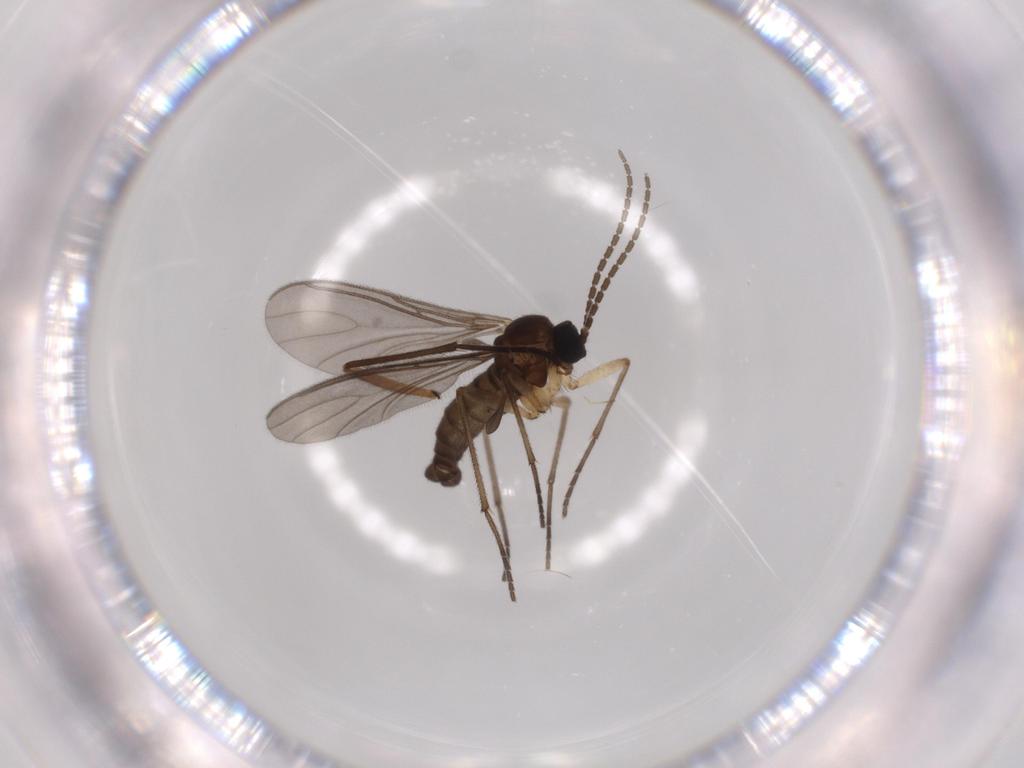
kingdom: Animalia
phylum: Arthropoda
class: Insecta
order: Diptera
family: Sciaridae
